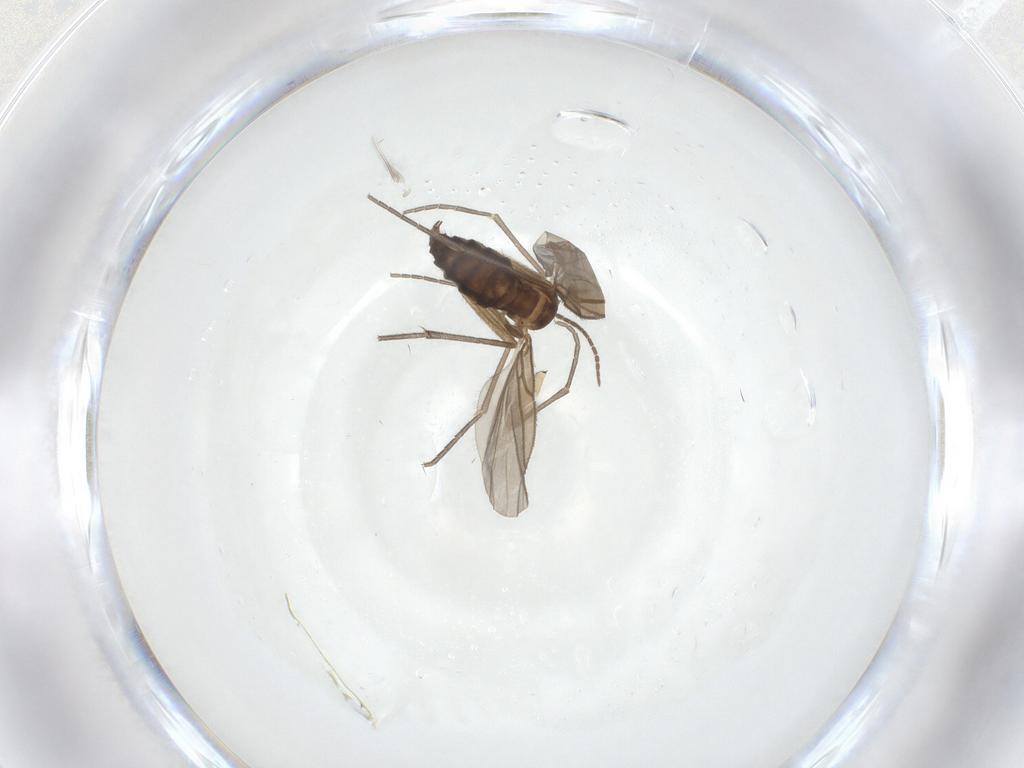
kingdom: Animalia
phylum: Arthropoda
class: Insecta
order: Diptera
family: Sciaridae
